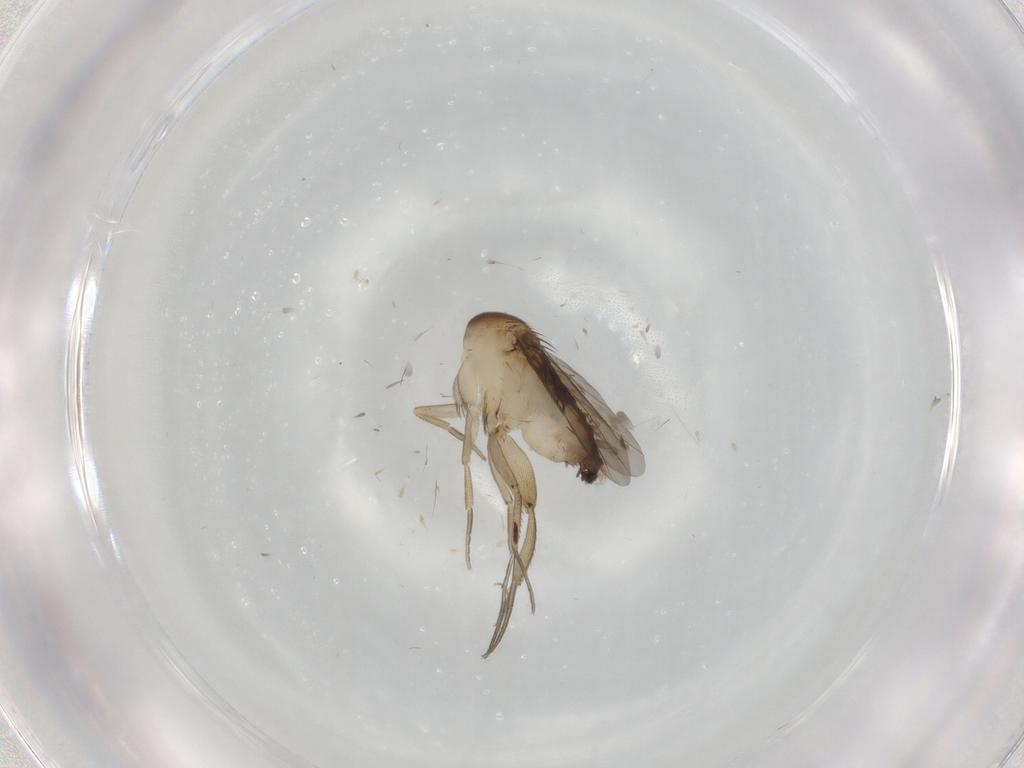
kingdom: Animalia
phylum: Arthropoda
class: Insecta
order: Diptera
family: Phoridae
